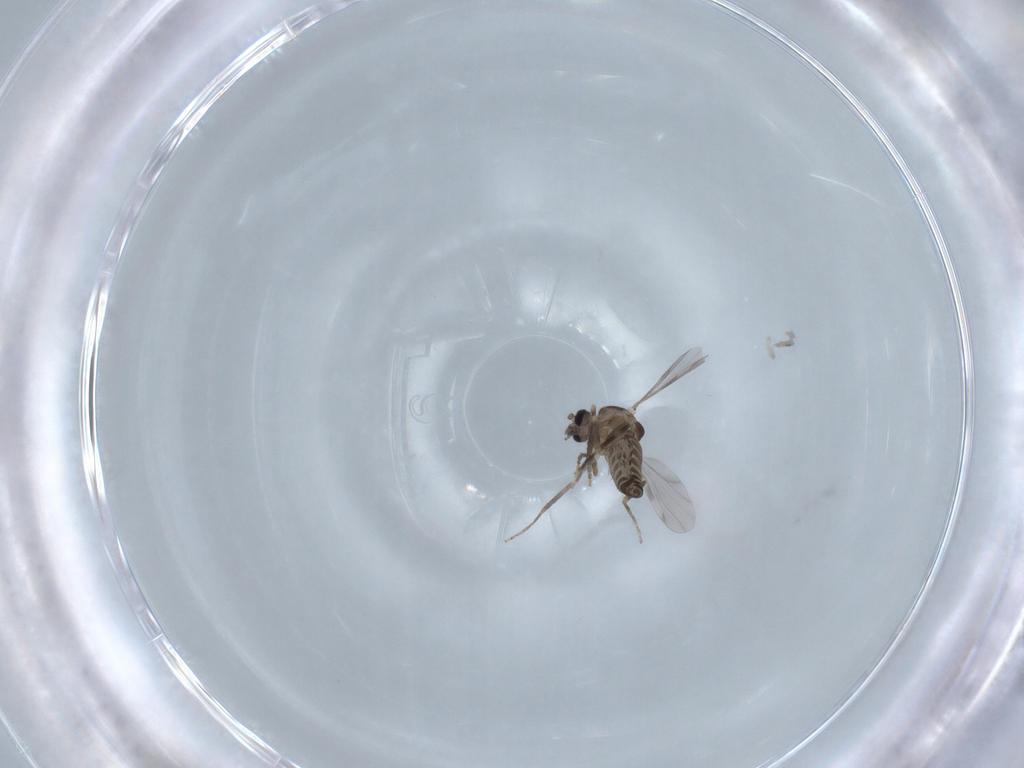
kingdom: Animalia
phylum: Arthropoda
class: Insecta
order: Diptera
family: Ceratopogonidae
